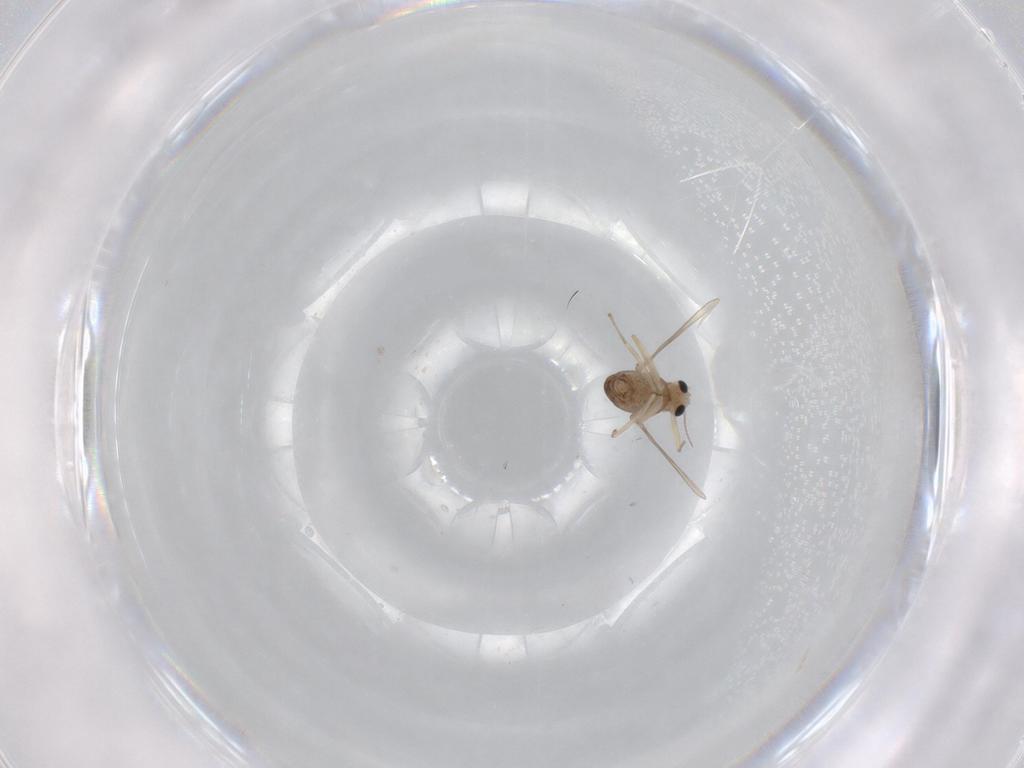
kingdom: Animalia
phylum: Arthropoda
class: Insecta
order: Diptera
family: Chironomidae
